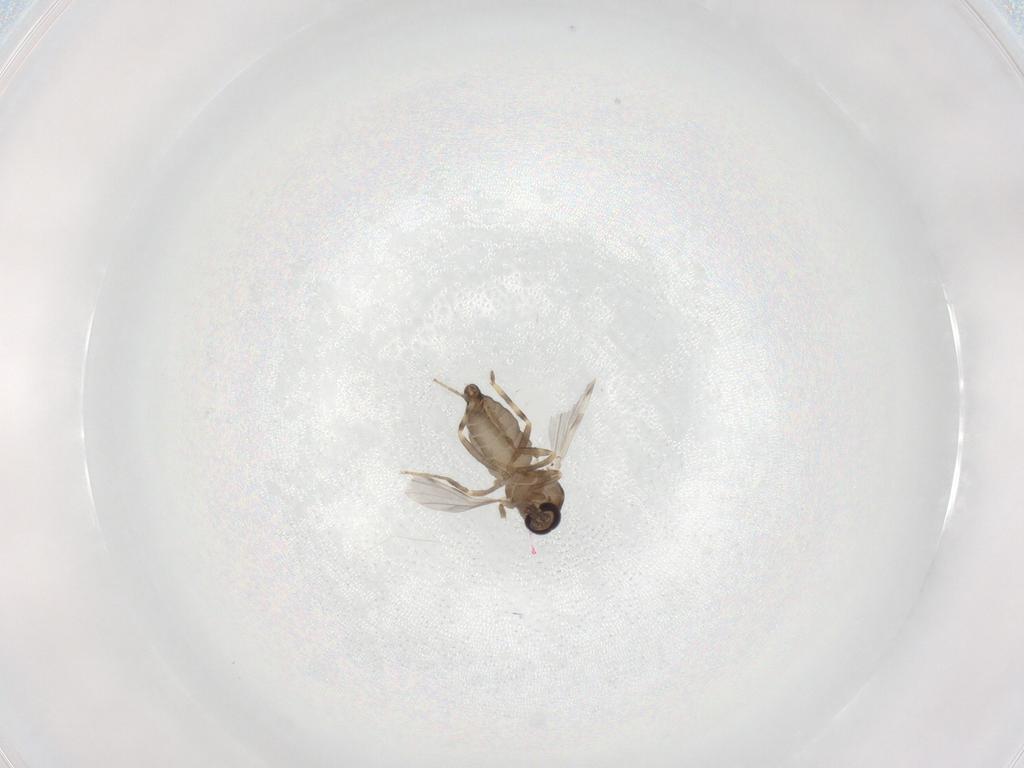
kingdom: Animalia
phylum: Arthropoda
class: Insecta
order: Diptera
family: Ceratopogonidae
